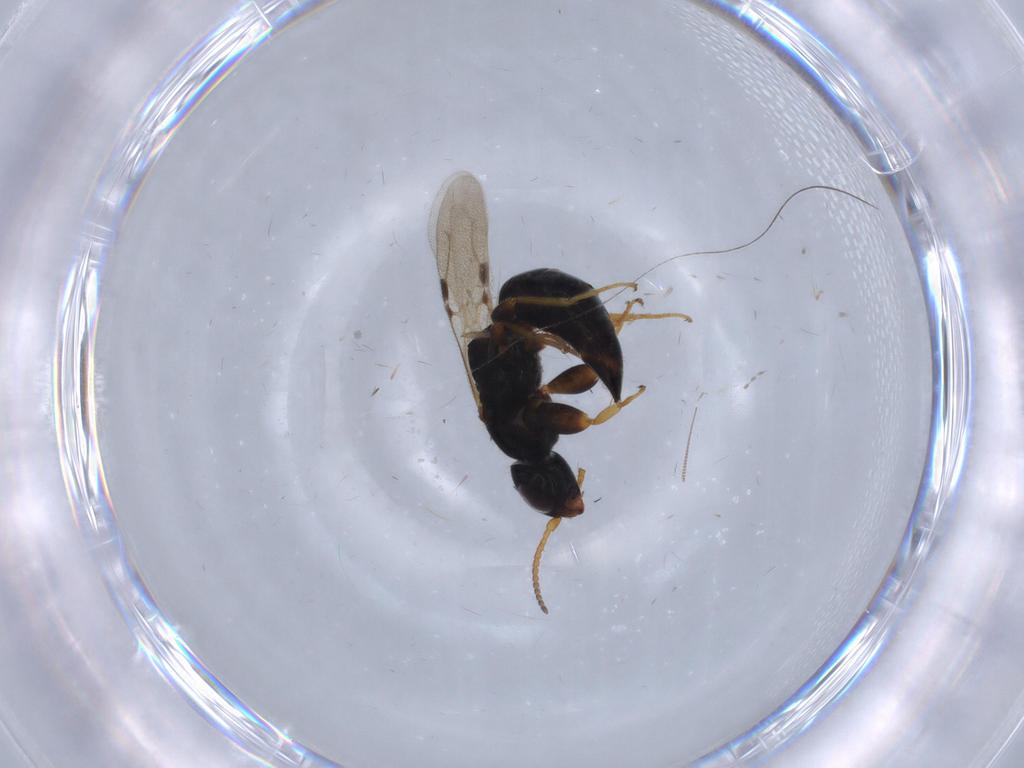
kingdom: Animalia
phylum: Arthropoda
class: Insecta
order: Hymenoptera
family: Bethylidae
